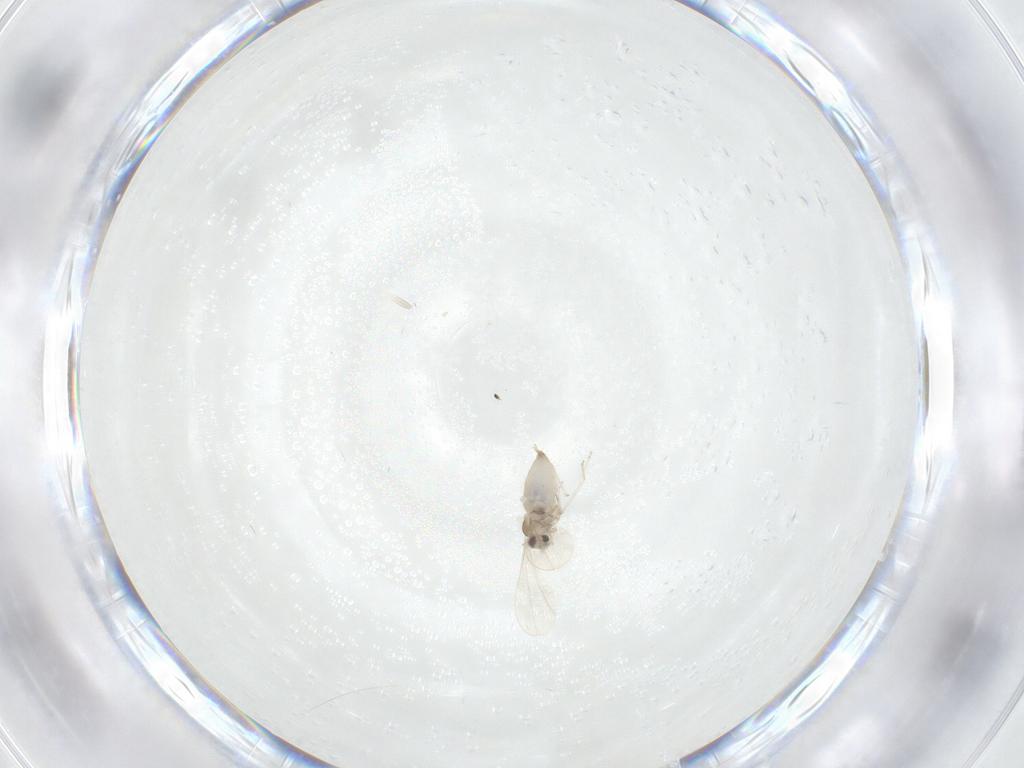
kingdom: Animalia
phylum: Arthropoda
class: Insecta
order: Diptera
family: Cecidomyiidae
